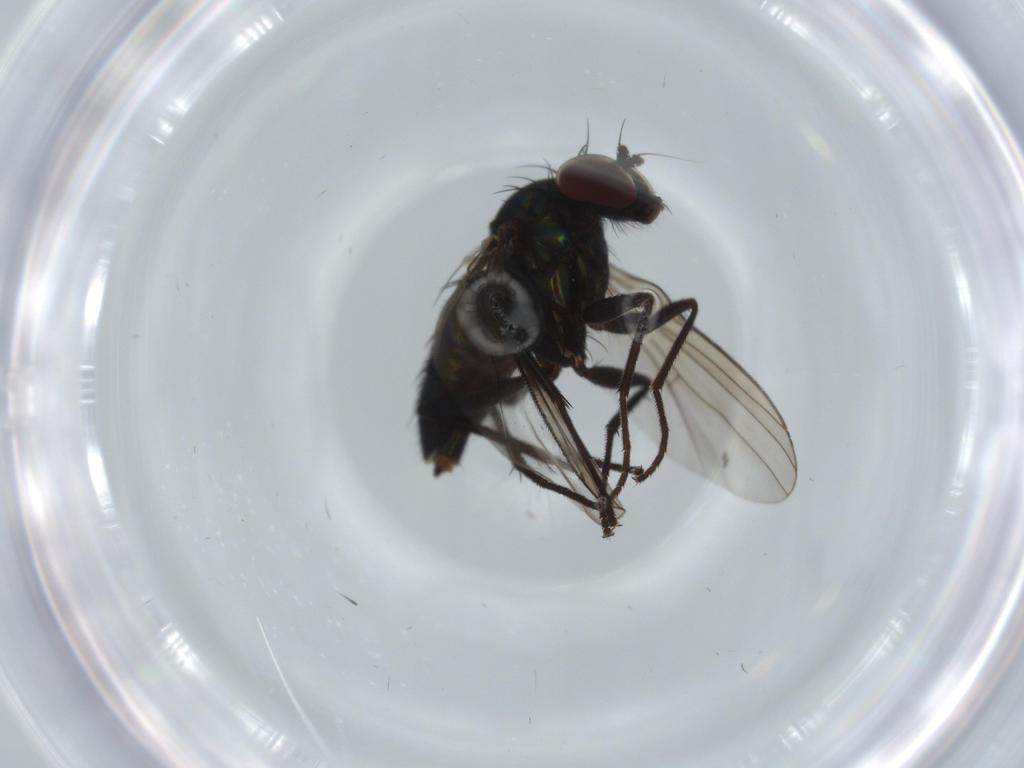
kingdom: Animalia
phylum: Arthropoda
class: Insecta
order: Diptera
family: Dolichopodidae
